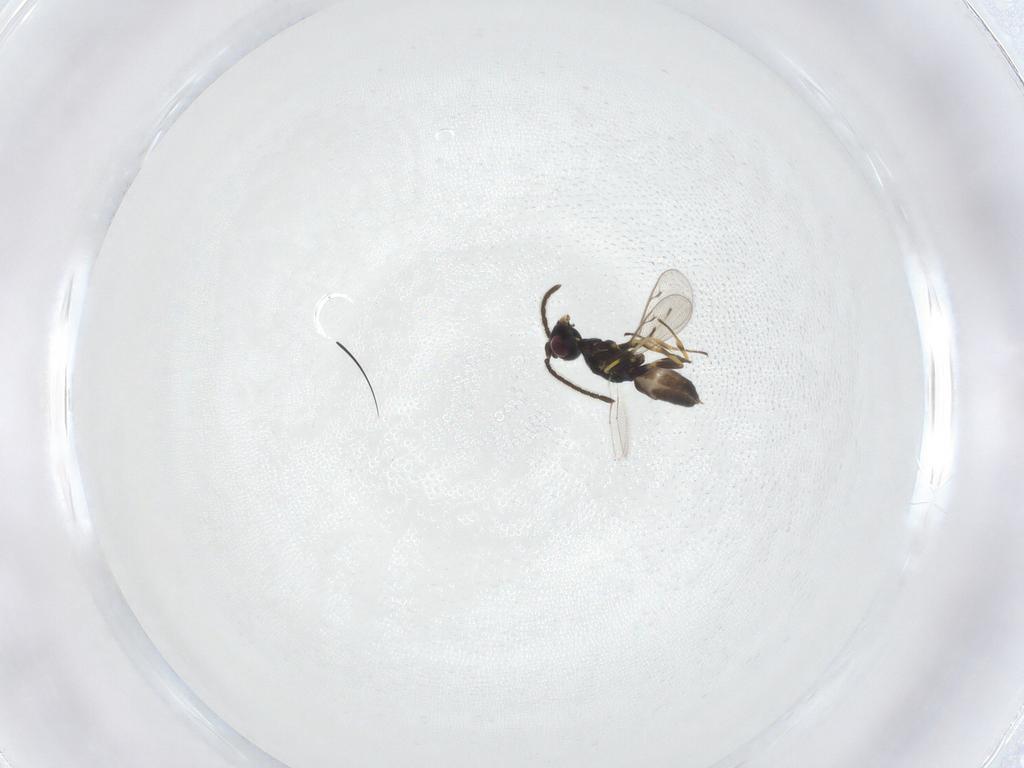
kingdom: Animalia
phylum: Arthropoda
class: Insecta
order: Hymenoptera
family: Eupelmidae
